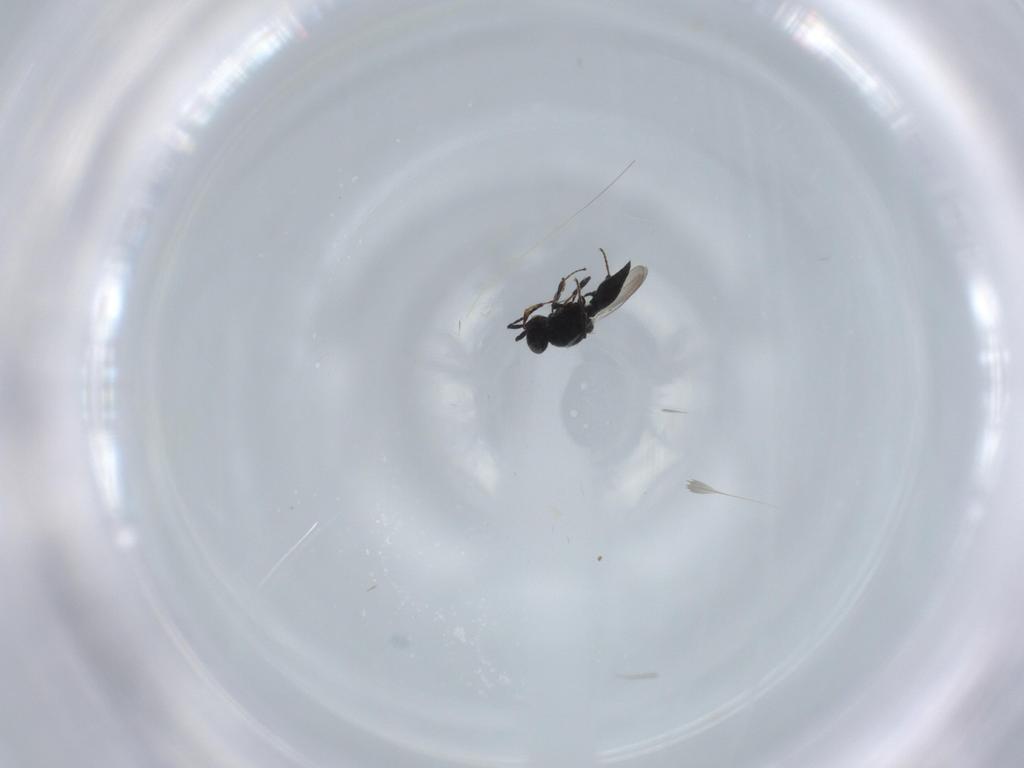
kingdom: Animalia
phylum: Arthropoda
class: Insecta
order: Diptera
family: Mythicomyiidae
